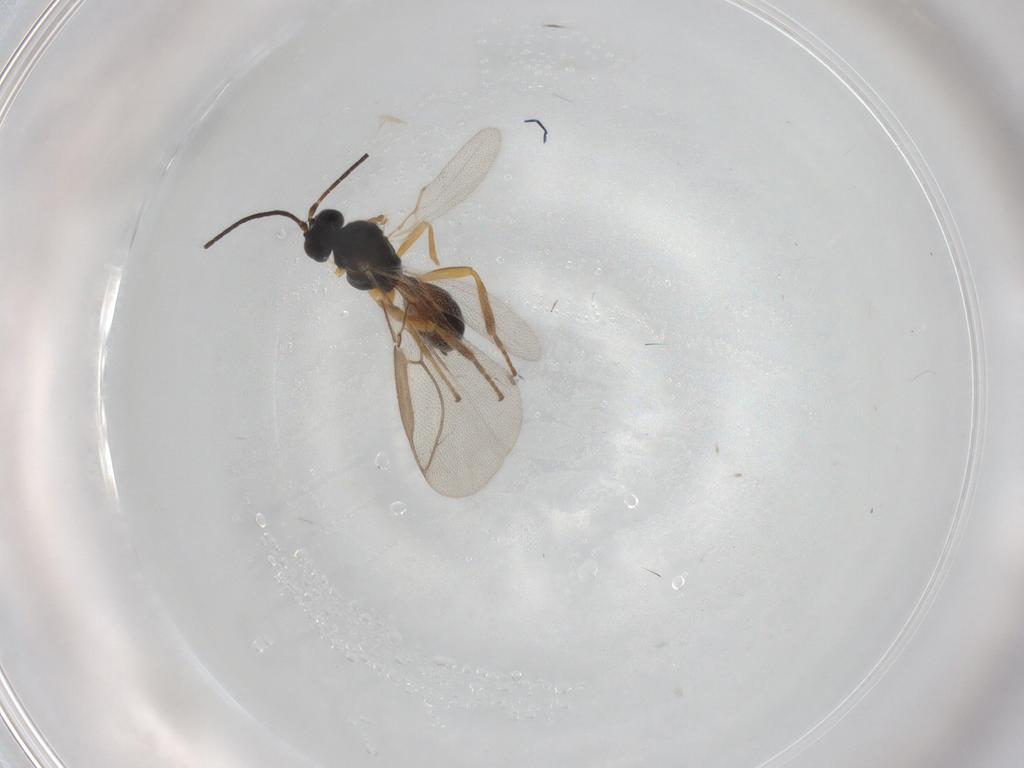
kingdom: Animalia
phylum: Arthropoda
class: Insecta
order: Hymenoptera
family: Braconidae
